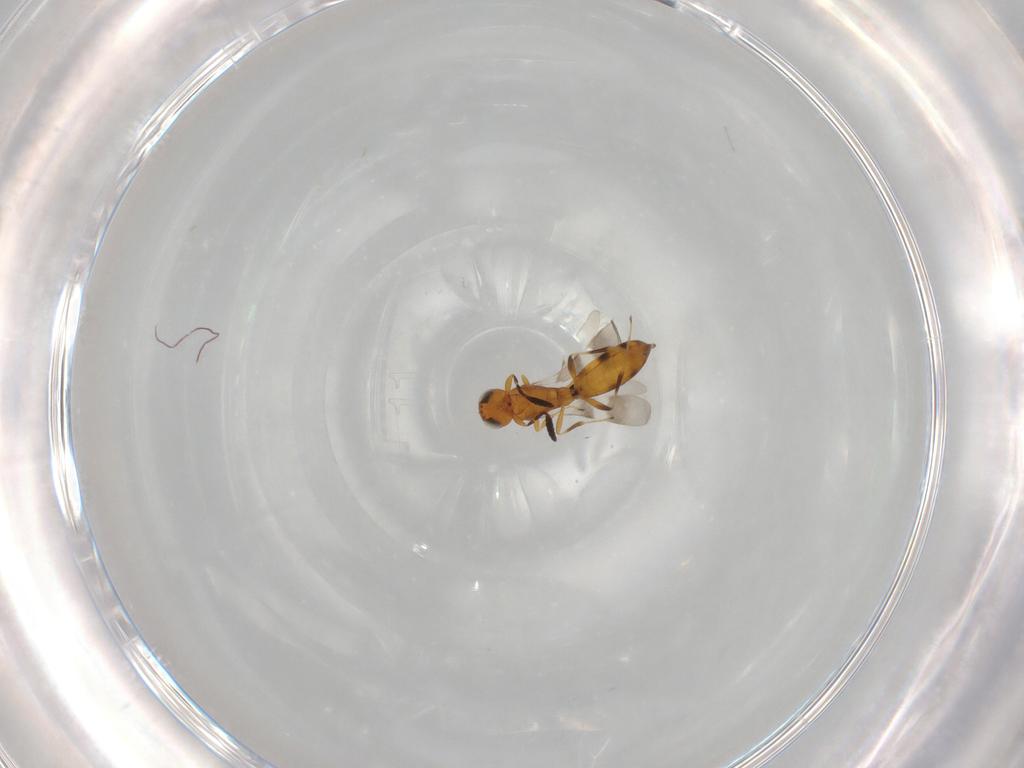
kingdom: Animalia
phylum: Arthropoda
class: Insecta
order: Hymenoptera
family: Scelionidae
